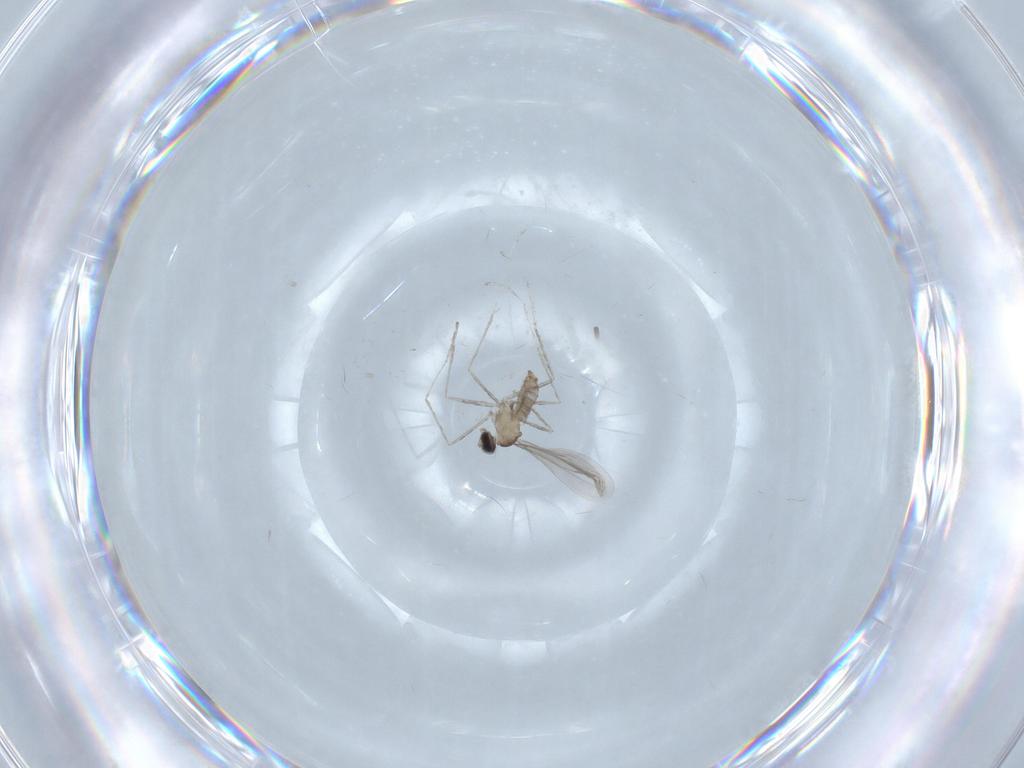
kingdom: Animalia
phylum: Arthropoda
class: Insecta
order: Diptera
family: Cecidomyiidae
